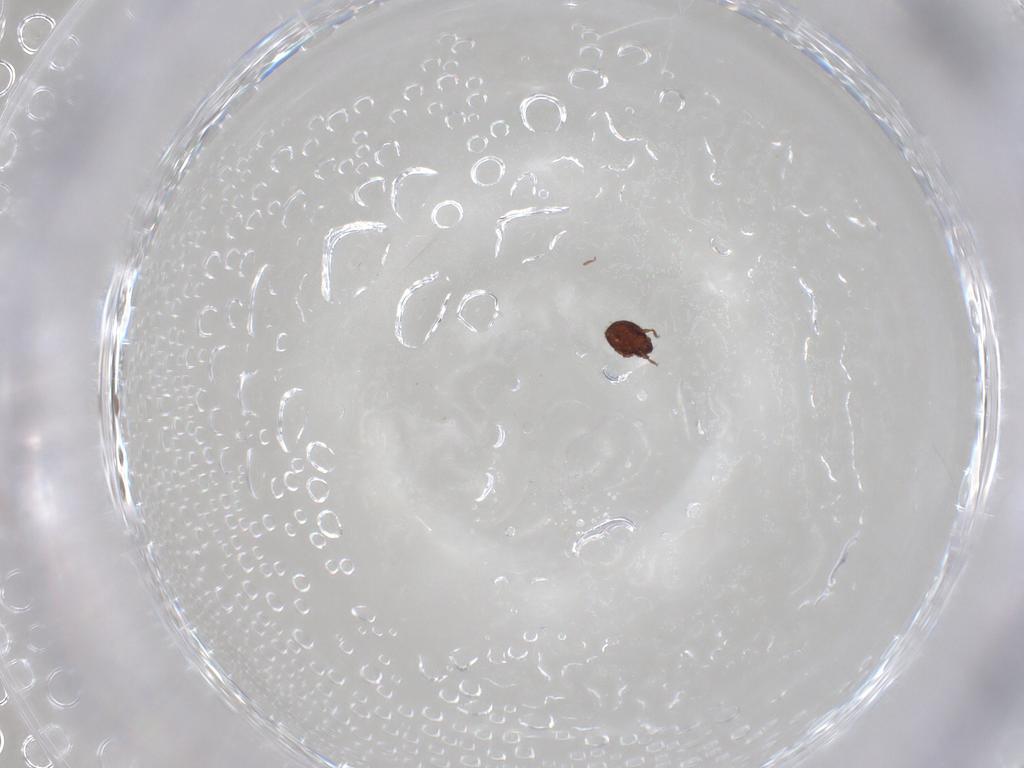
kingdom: Animalia
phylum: Arthropoda
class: Arachnida
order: Sarcoptiformes
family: Scheloribatidae
